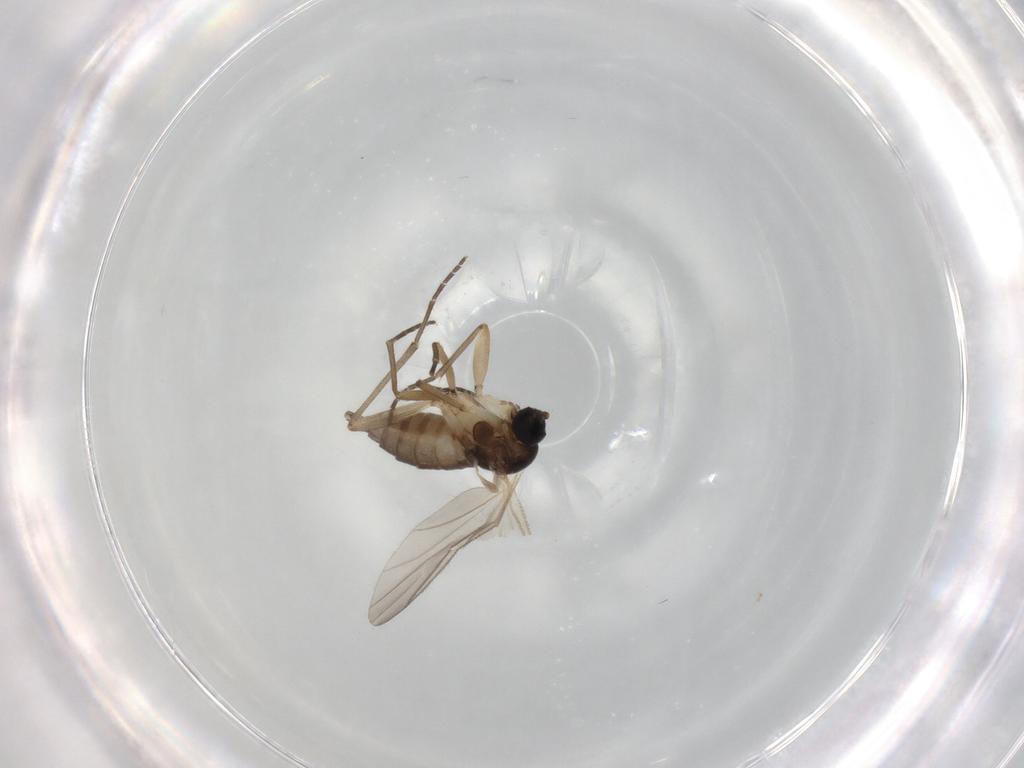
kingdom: Animalia
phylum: Arthropoda
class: Insecta
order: Diptera
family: Sciaridae
